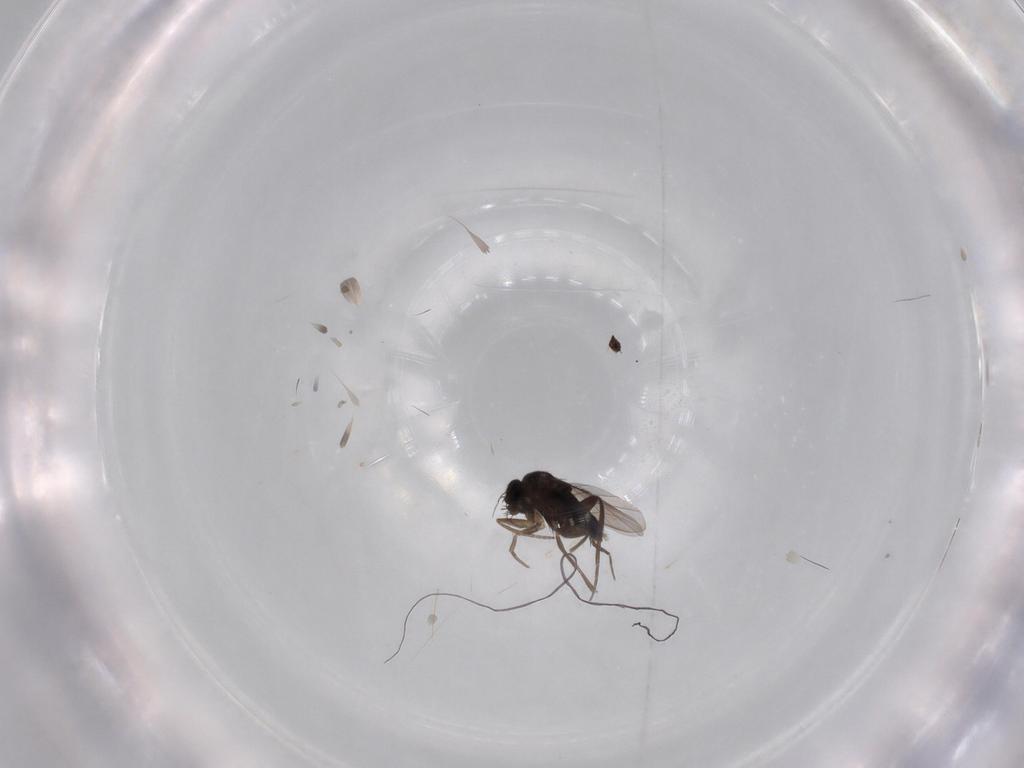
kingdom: Animalia
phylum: Arthropoda
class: Insecta
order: Diptera
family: Phoridae
